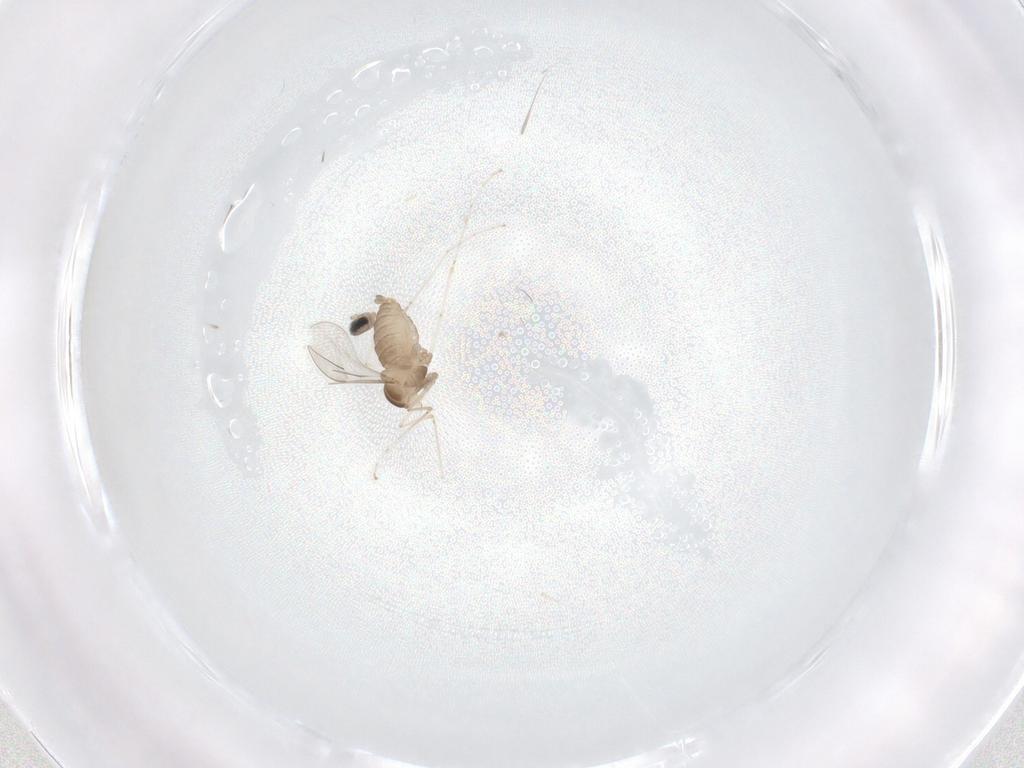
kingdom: Animalia
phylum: Arthropoda
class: Insecta
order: Diptera
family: Cecidomyiidae
